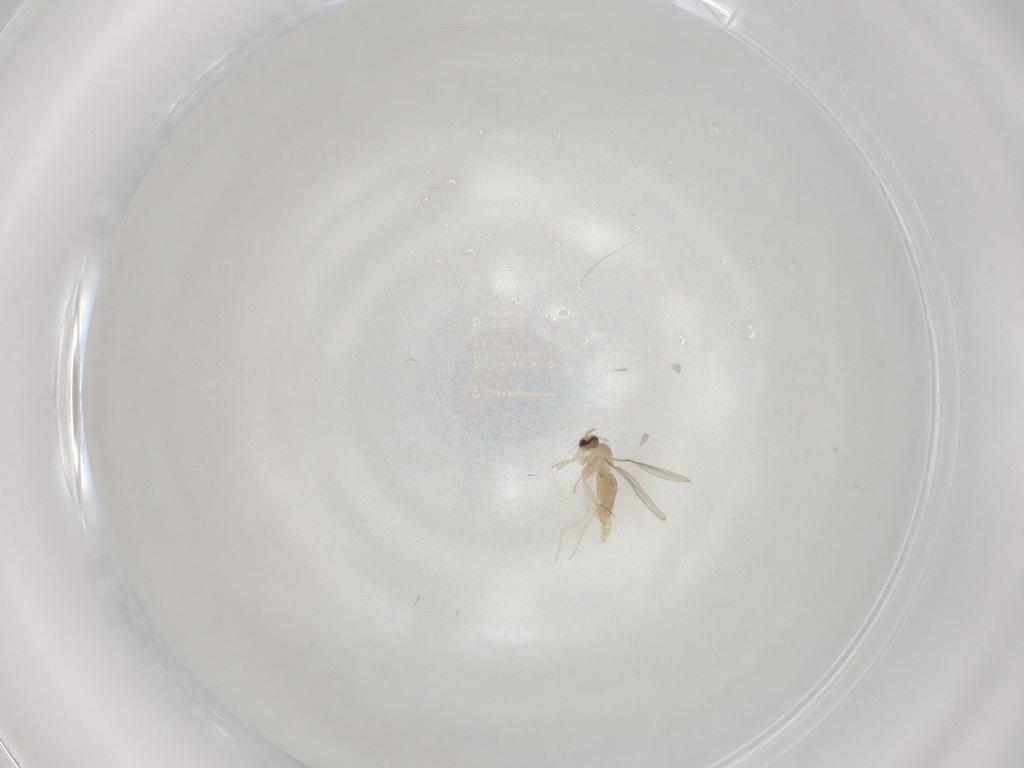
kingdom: Animalia
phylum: Arthropoda
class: Insecta
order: Diptera
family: Cecidomyiidae
